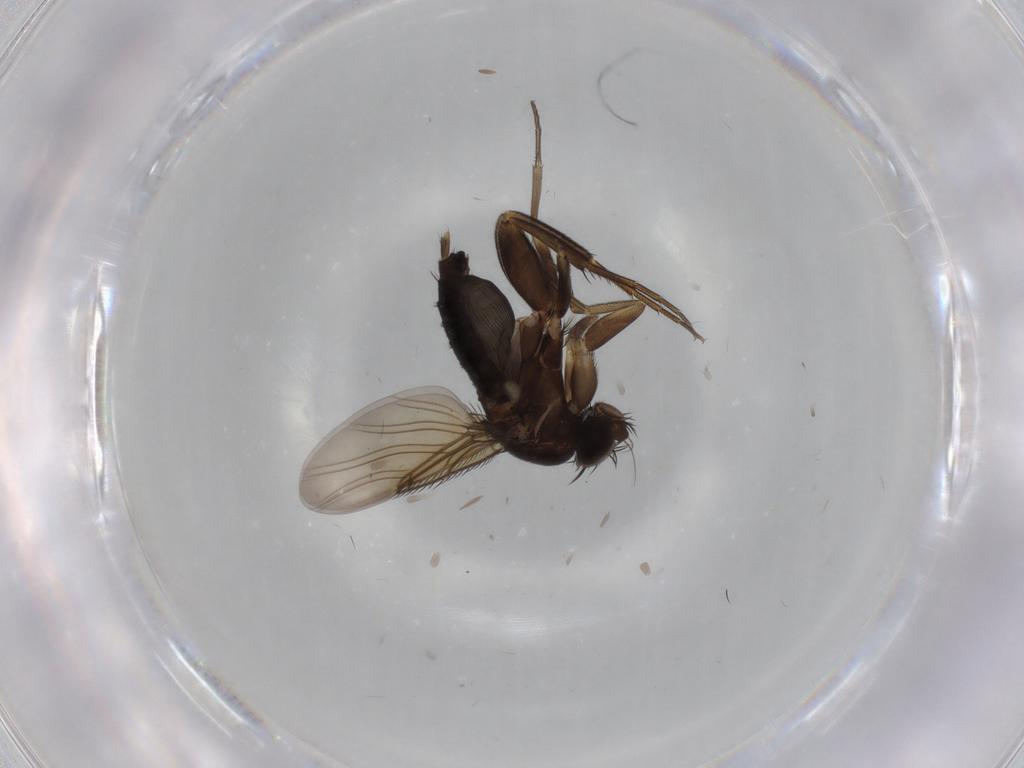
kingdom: Animalia
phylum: Arthropoda
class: Insecta
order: Diptera
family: Phoridae
